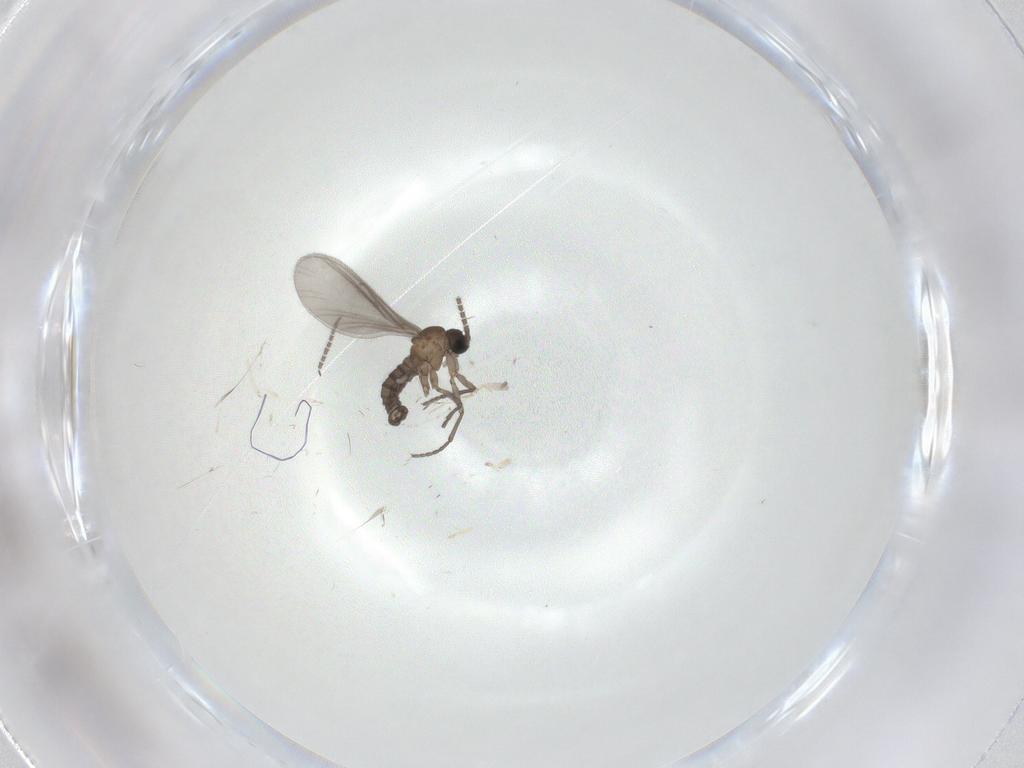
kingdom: Animalia
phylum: Arthropoda
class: Insecta
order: Diptera
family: Sciaridae
